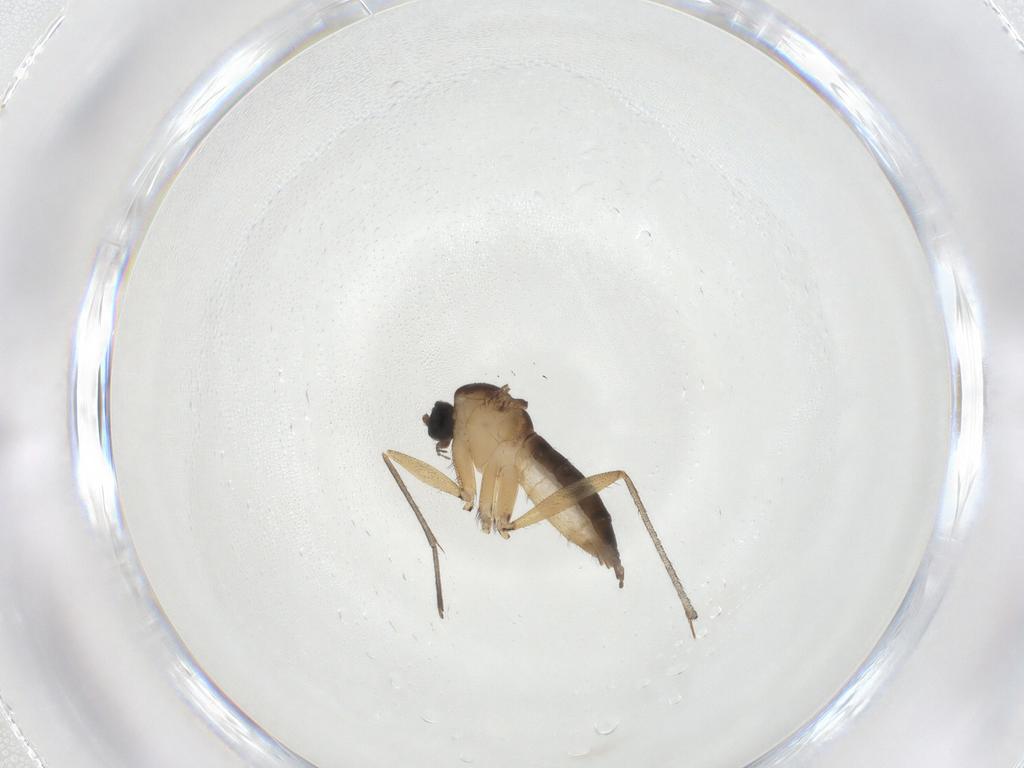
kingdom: Animalia
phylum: Arthropoda
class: Insecta
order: Diptera
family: Sciaridae
